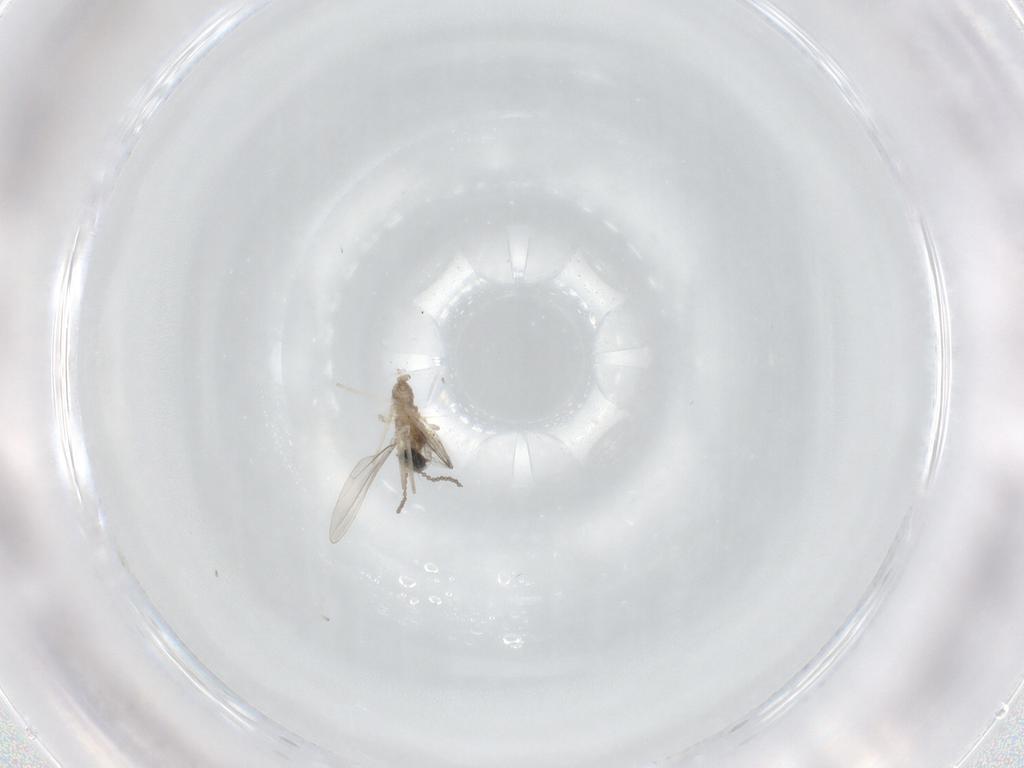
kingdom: Animalia
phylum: Arthropoda
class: Insecta
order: Diptera
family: Cecidomyiidae
